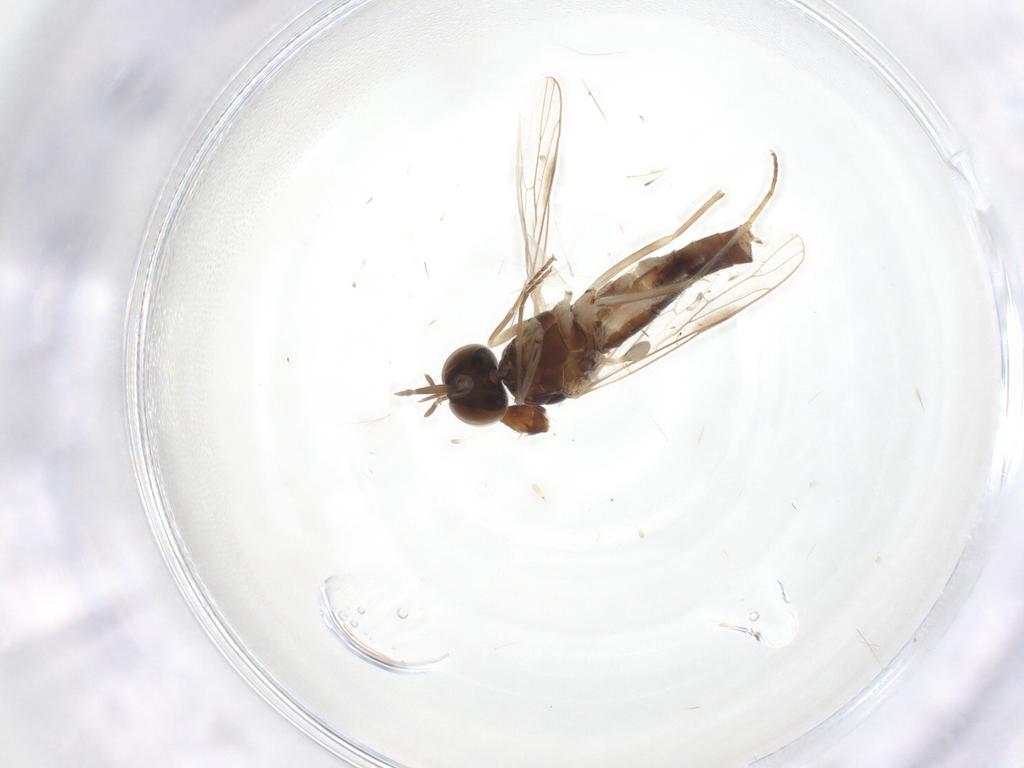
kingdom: Animalia
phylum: Arthropoda
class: Insecta
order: Diptera
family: Scenopinidae
